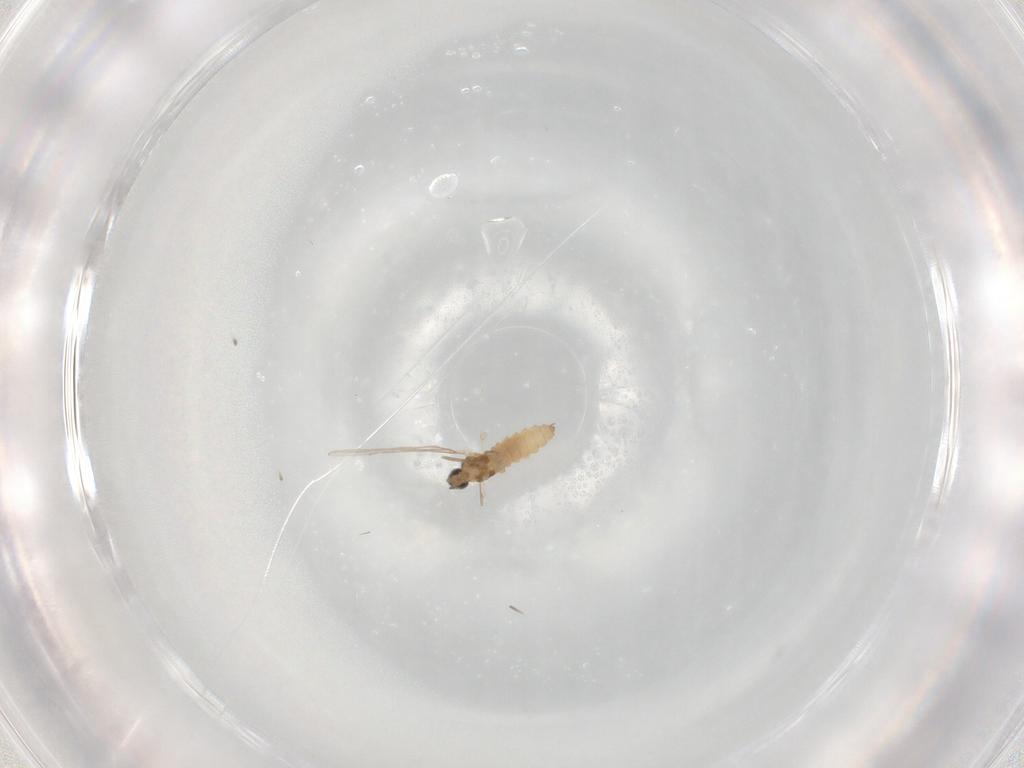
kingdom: Animalia
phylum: Arthropoda
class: Insecta
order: Diptera
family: Cecidomyiidae
